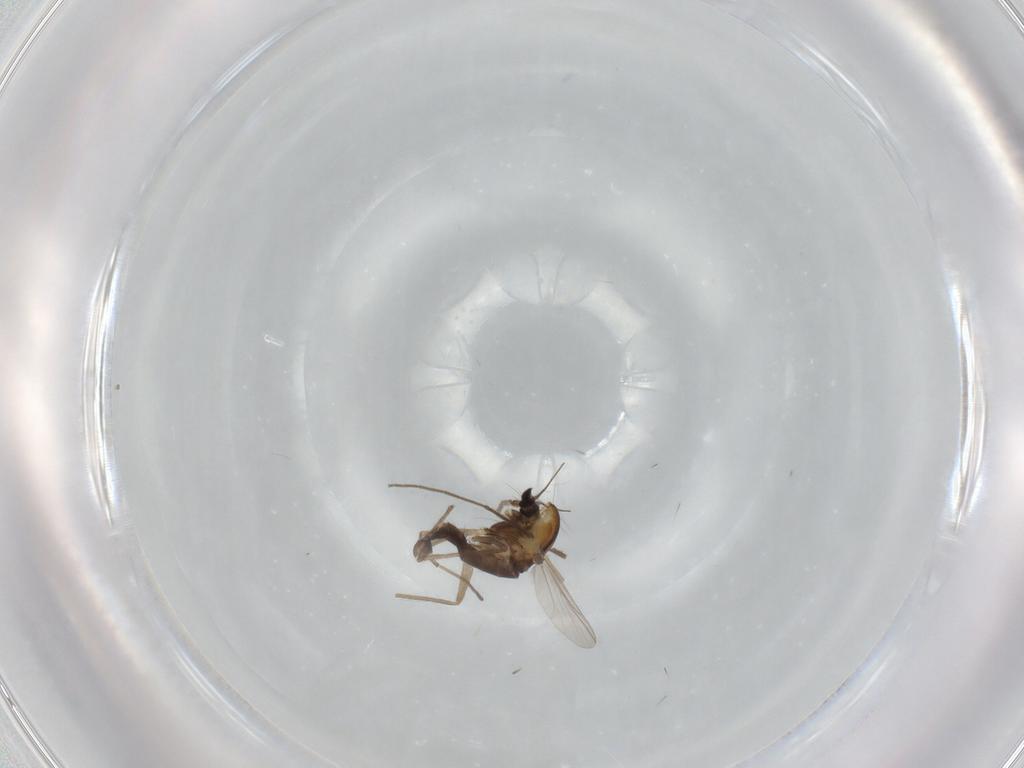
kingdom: Animalia
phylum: Arthropoda
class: Insecta
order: Diptera
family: Chironomidae
